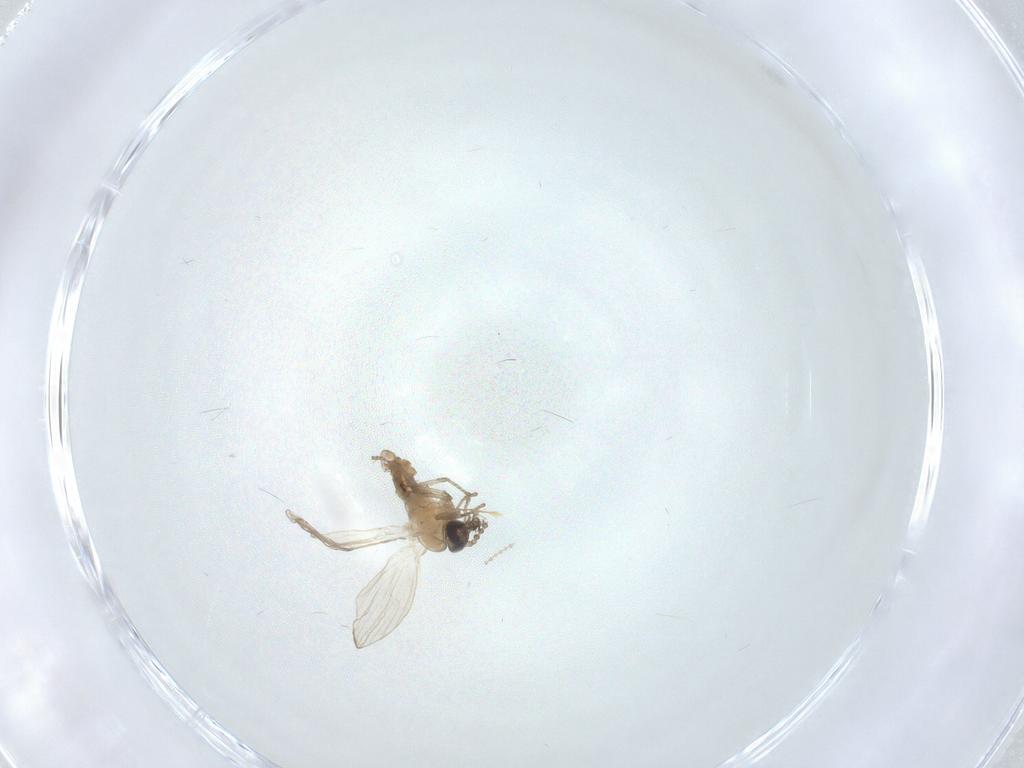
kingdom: Animalia
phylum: Arthropoda
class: Insecta
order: Diptera
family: Psychodidae
